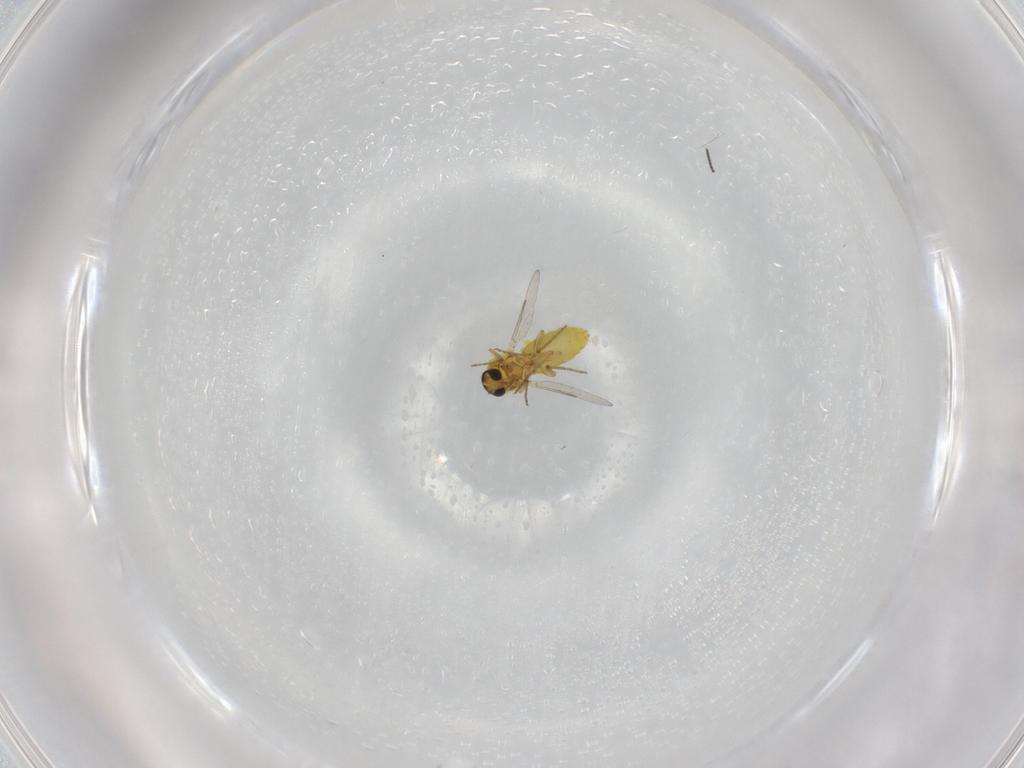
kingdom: Animalia
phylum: Arthropoda
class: Insecta
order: Diptera
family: Ceratopogonidae
